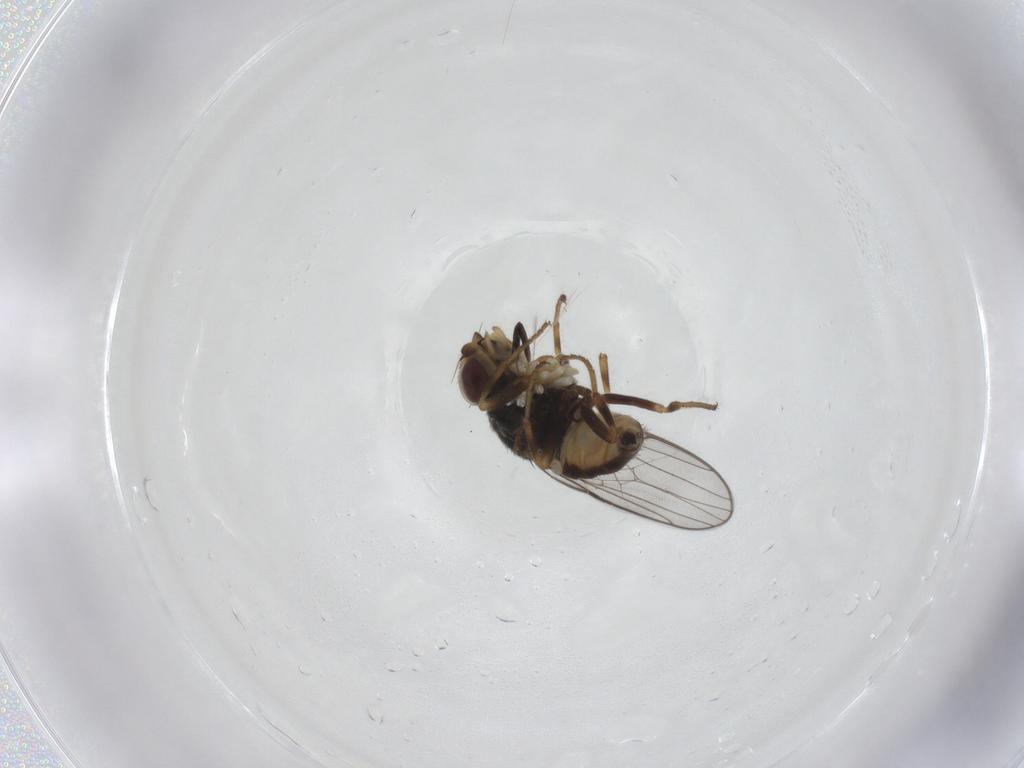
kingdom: Animalia
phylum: Arthropoda
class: Insecta
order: Diptera
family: Chloropidae
